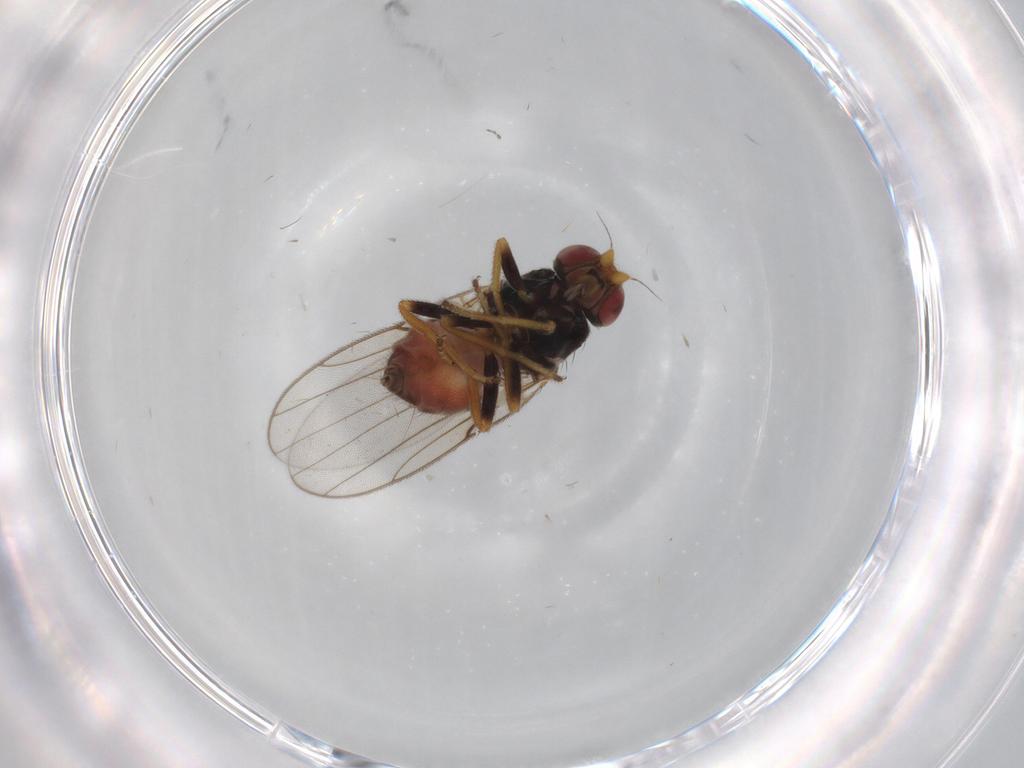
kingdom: Animalia
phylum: Arthropoda
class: Insecta
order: Diptera
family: Chloropidae
